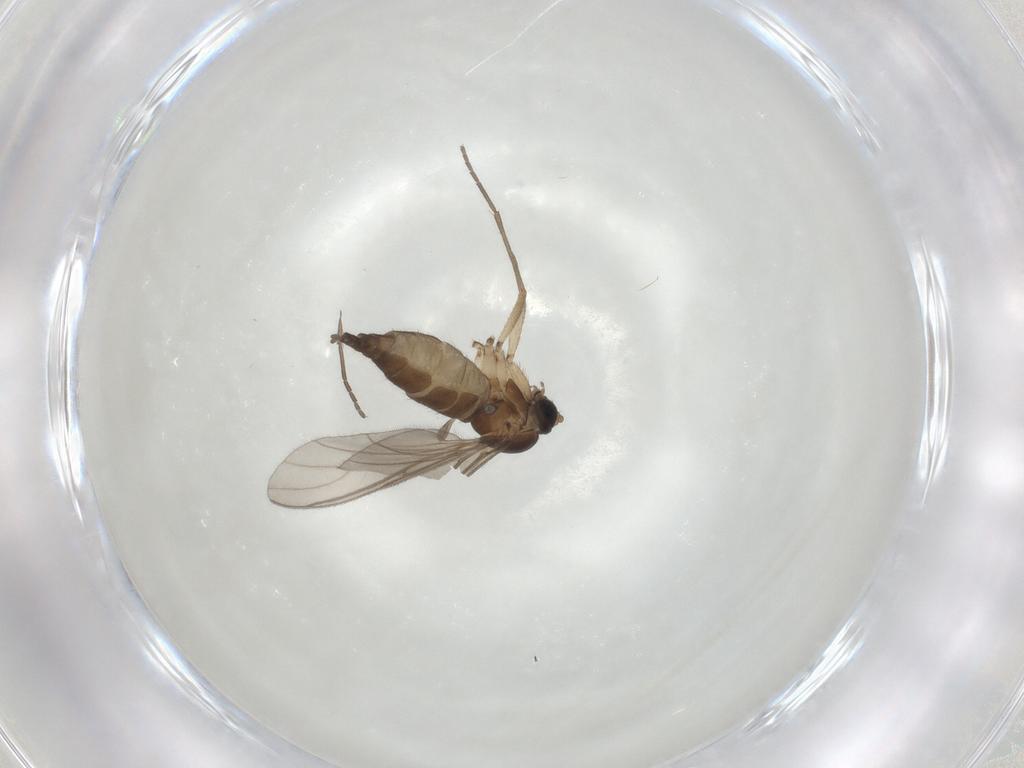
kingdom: Animalia
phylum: Arthropoda
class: Insecta
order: Diptera
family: Sciaridae
